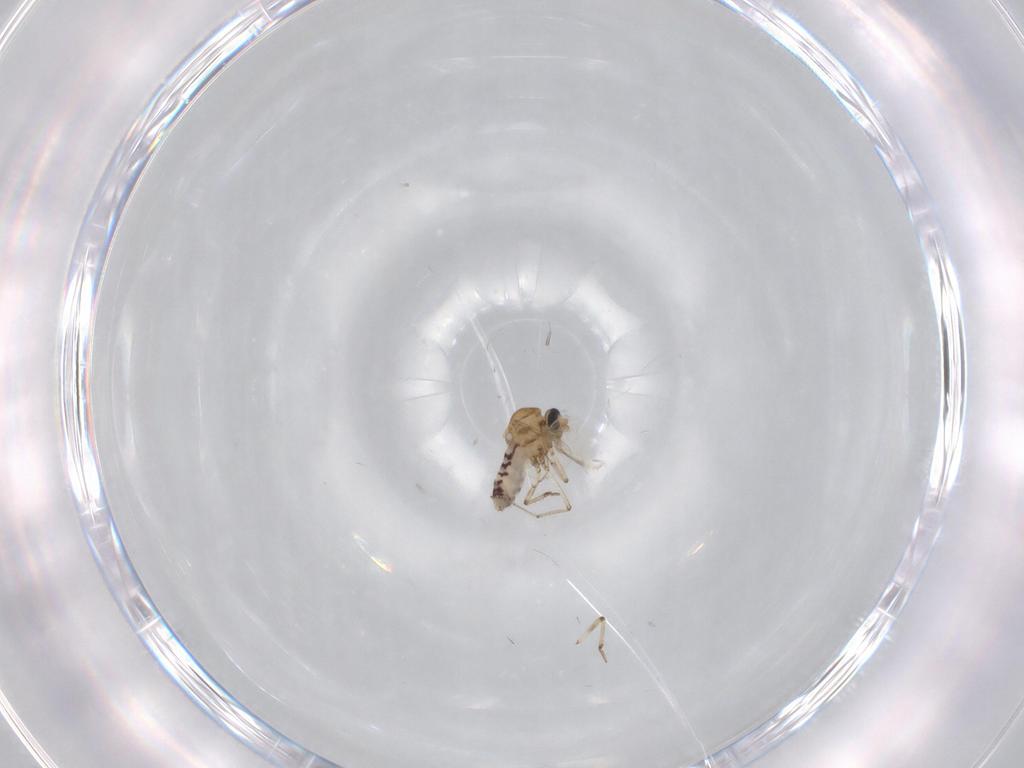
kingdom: Animalia
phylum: Arthropoda
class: Insecta
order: Diptera
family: Ceratopogonidae
